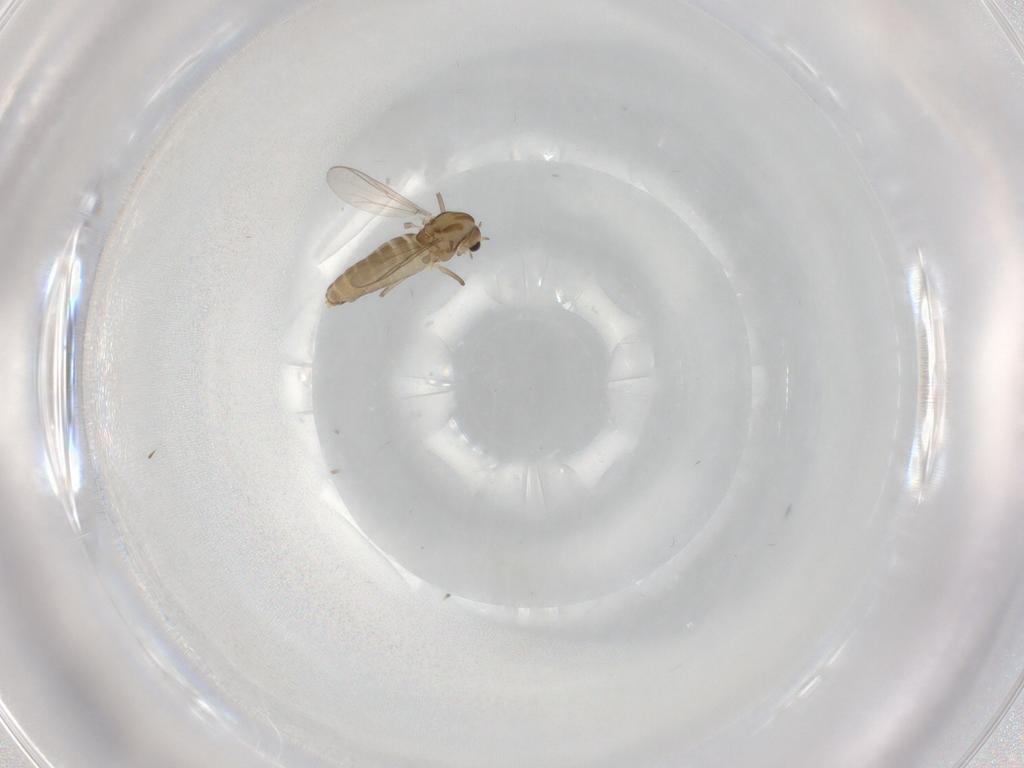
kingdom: Animalia
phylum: Arthropoda
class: Insecta
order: Diptera
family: Chironomidae
